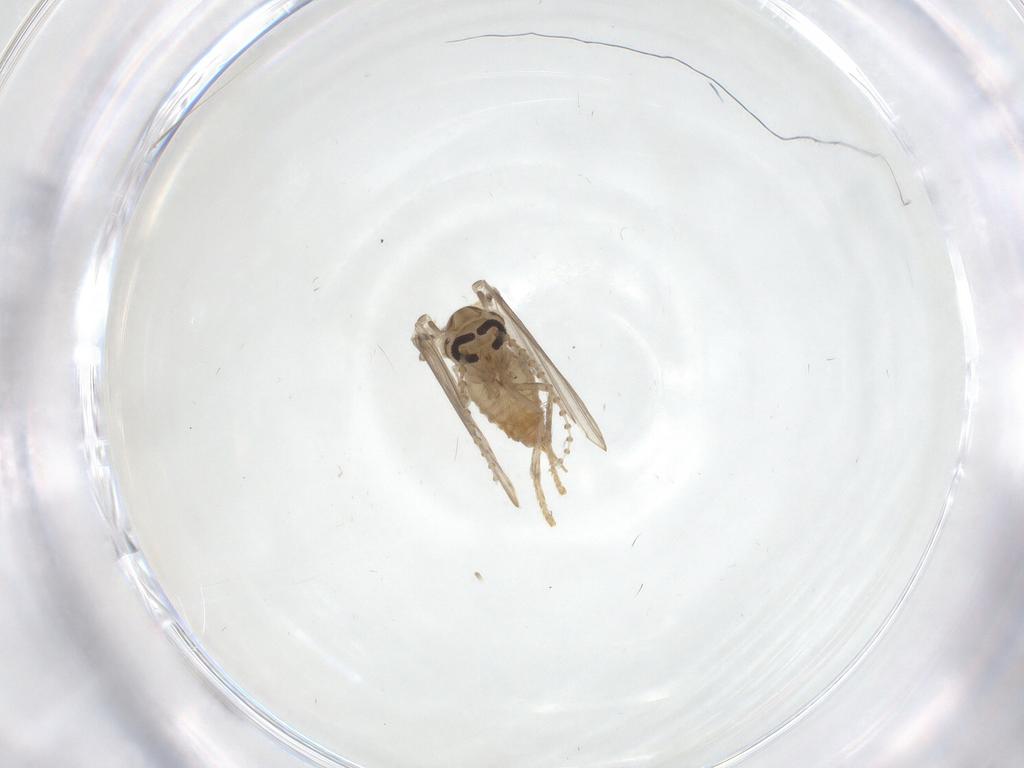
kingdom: Animalia
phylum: Arthropoda
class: Insecta
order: Diptera
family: Psychodidae
